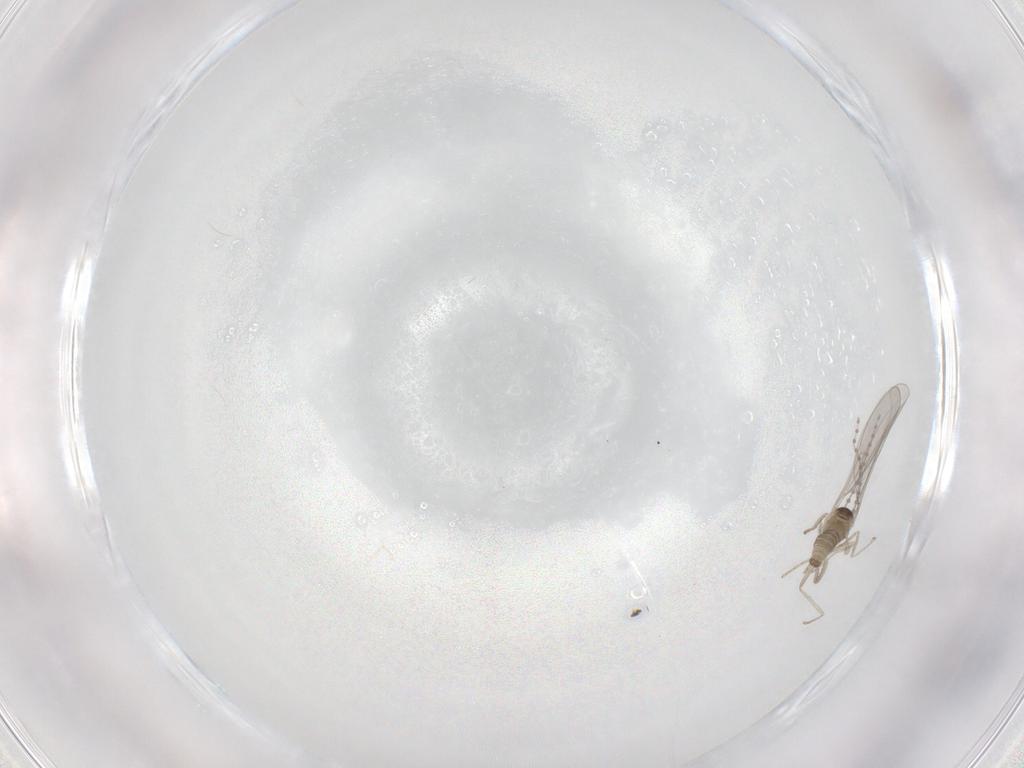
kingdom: Animalia
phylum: Arthropoda
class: Insecta
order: Diptera
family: Cecidomyiidae
